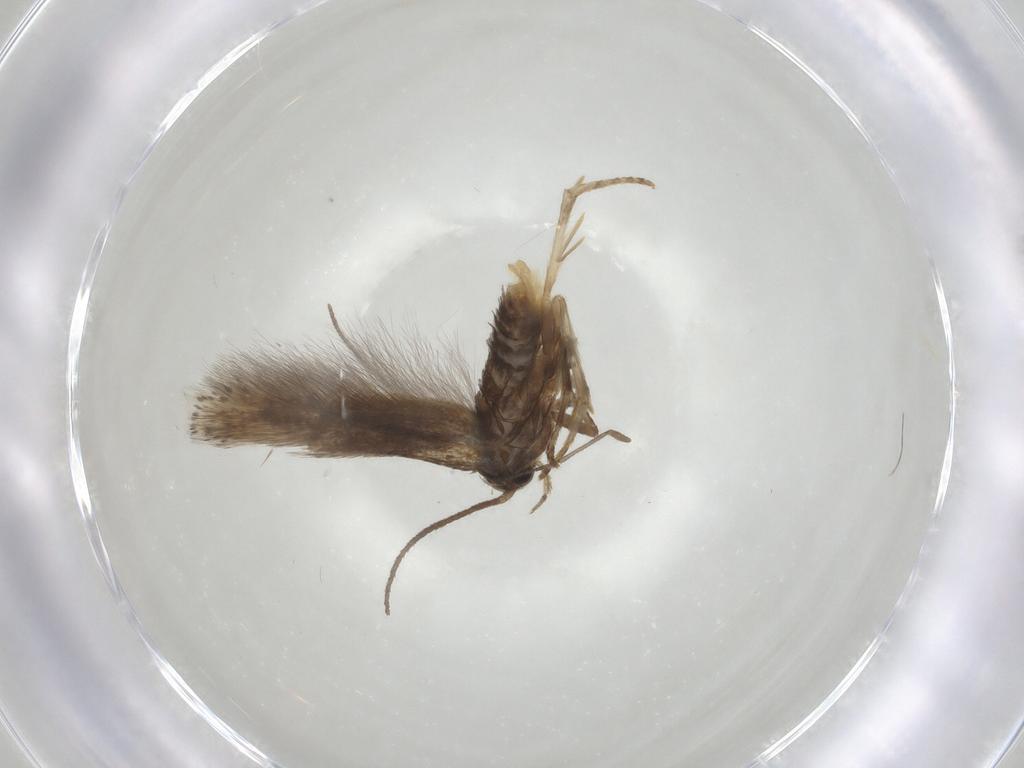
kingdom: Animalia
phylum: Arthropoda
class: Insecta
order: Lepidoptera
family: Elachistidae
